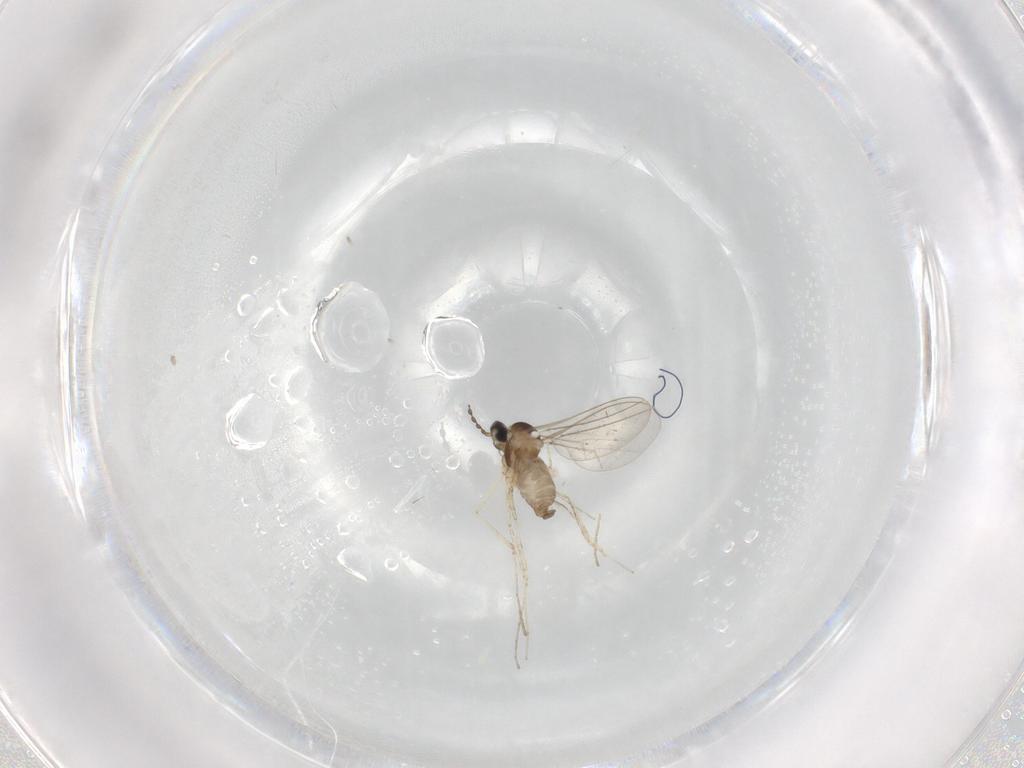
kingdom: Animalia
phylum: Arthropoda
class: Insecta
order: Diptera
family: Cecidomyiidae
